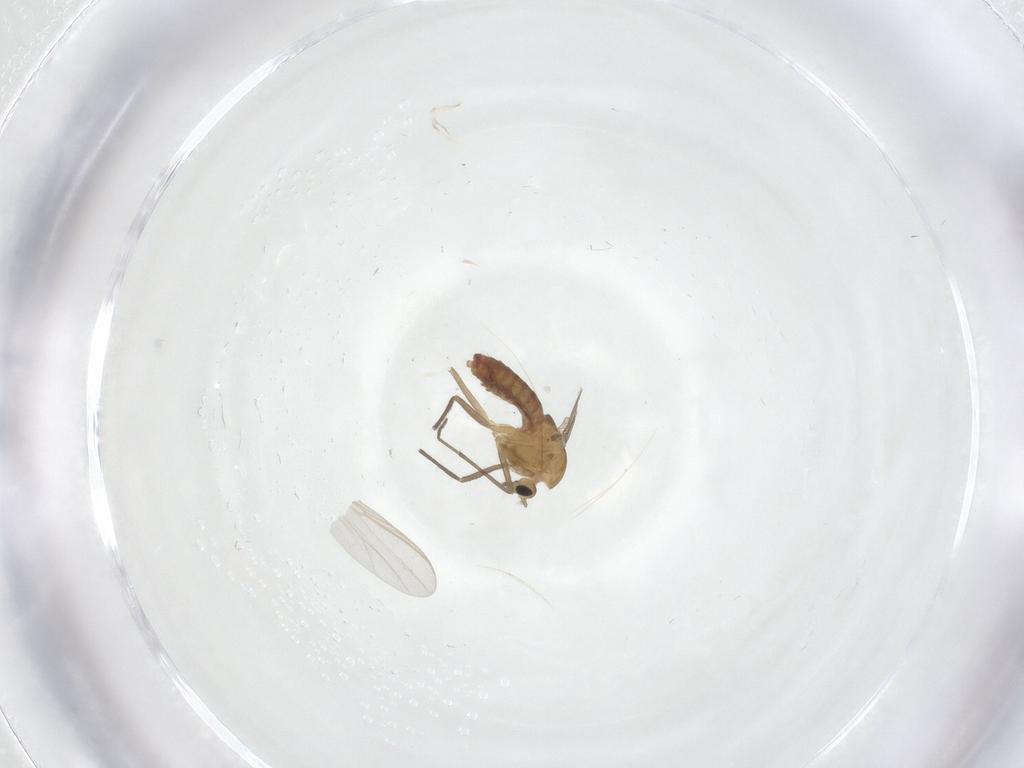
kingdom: Animalia
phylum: Arthropoda
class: Insecta
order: Diptera
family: Chironomidae
